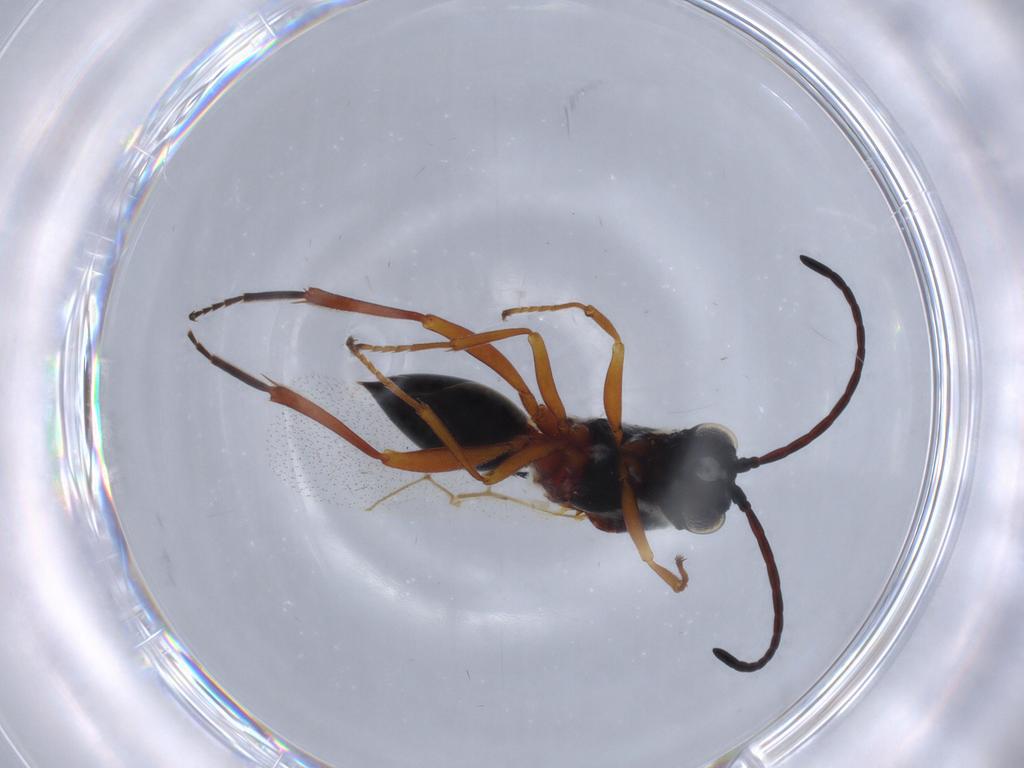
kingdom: Animalia
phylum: Arthropoda
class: Insecta
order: Hymenoptera
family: Figitidae
